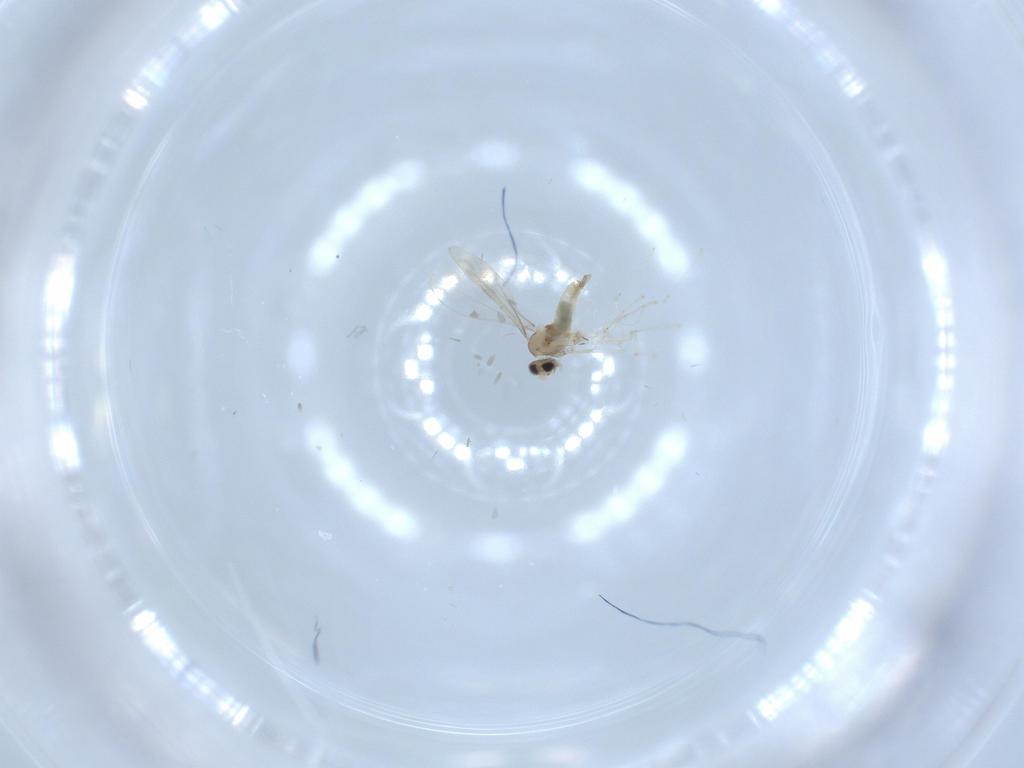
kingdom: Animalia
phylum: Arthropoda
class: Insecta
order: Diptera
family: Cecidomyiidae
